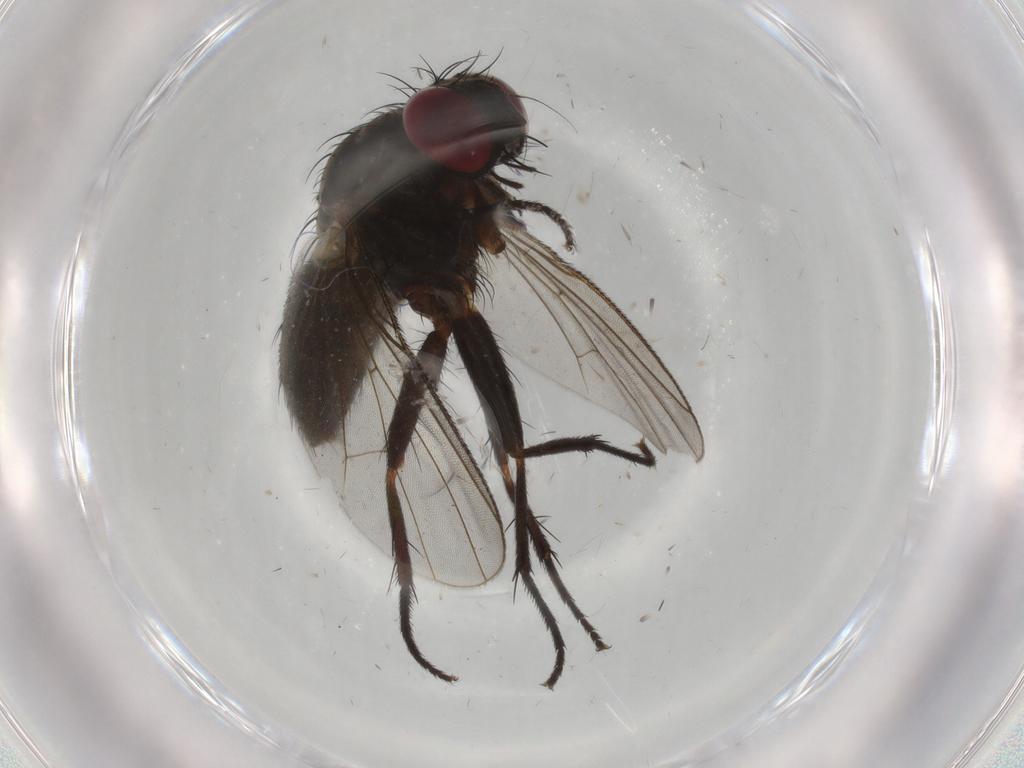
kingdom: Animalia
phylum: Arthropoda
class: Insecta
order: Diptera
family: Muscidae
